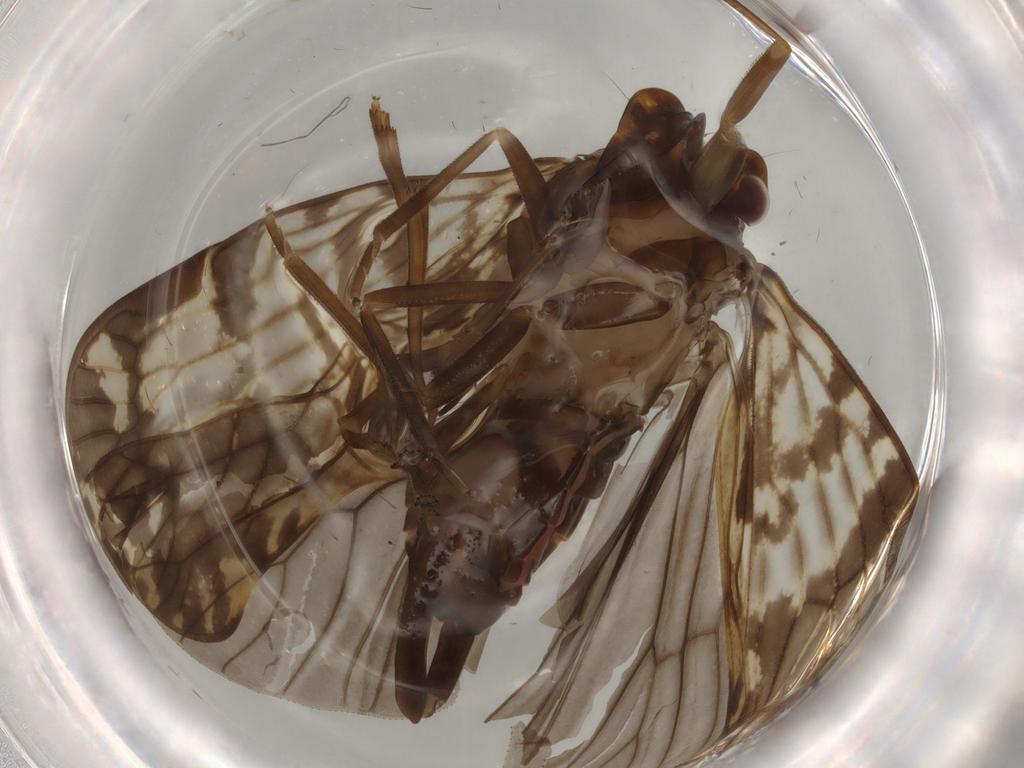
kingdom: Animalia
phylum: Arthropoda
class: Insecta
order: Hemiptera
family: Cixiidae
